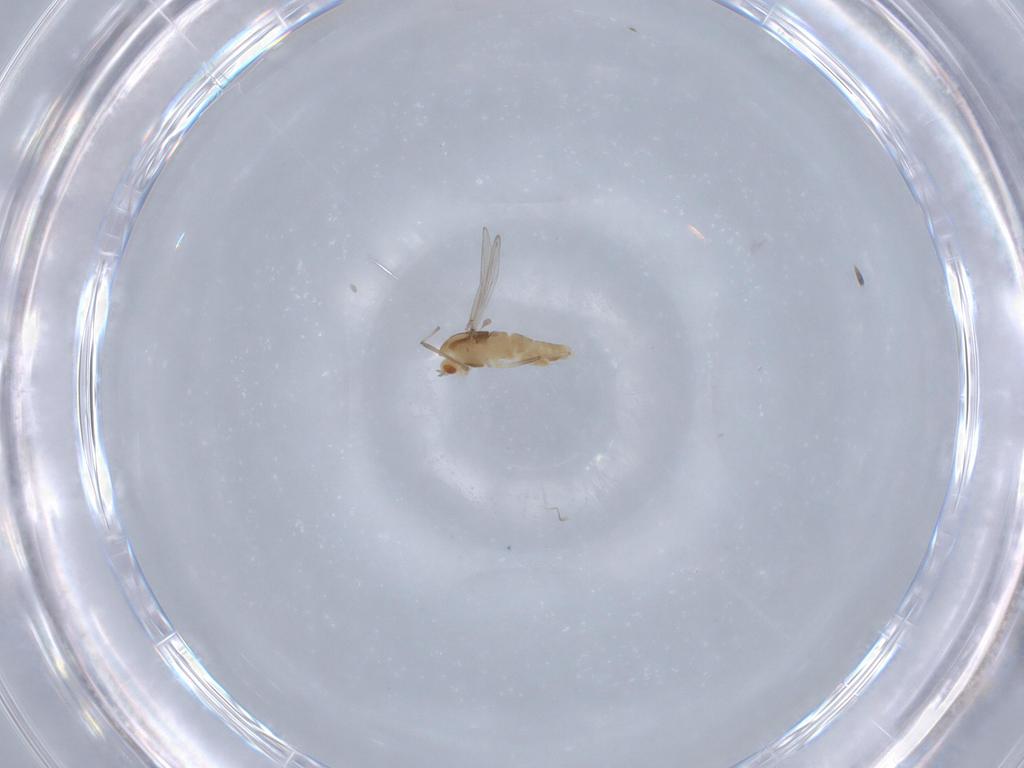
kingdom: Animalia
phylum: Arthropoda
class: Insecta
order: Diptera
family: Chironomidae
